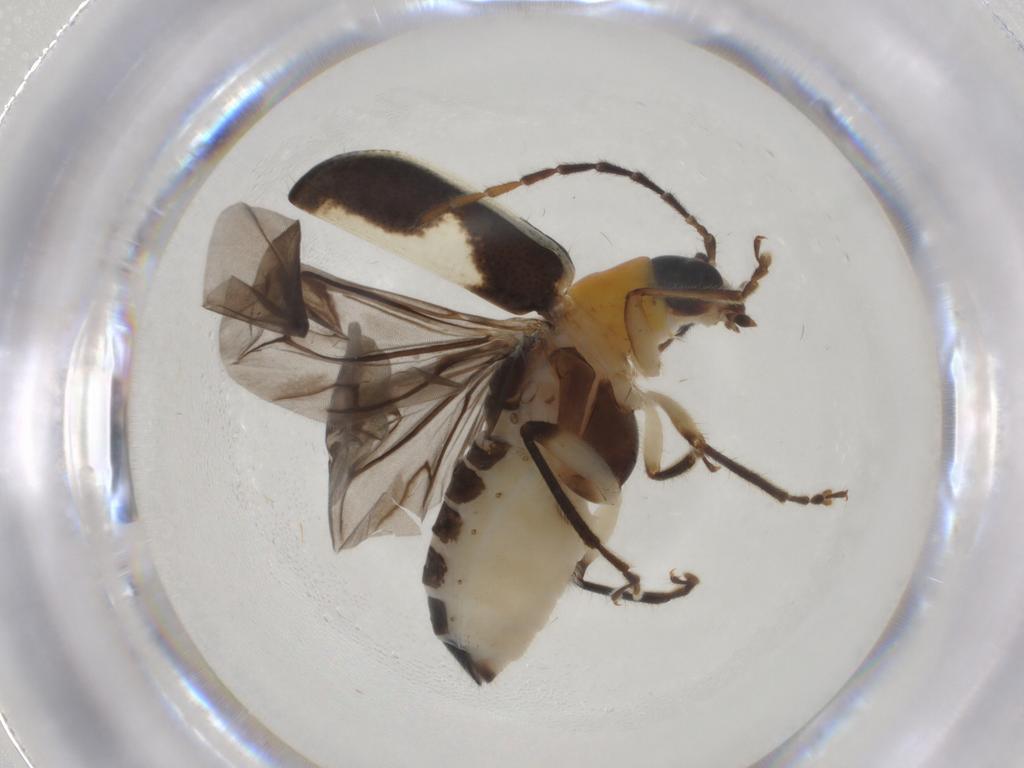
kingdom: Animalia
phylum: Arthropoda
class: Insecta
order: Coleoptera
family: Chrysomelidae
